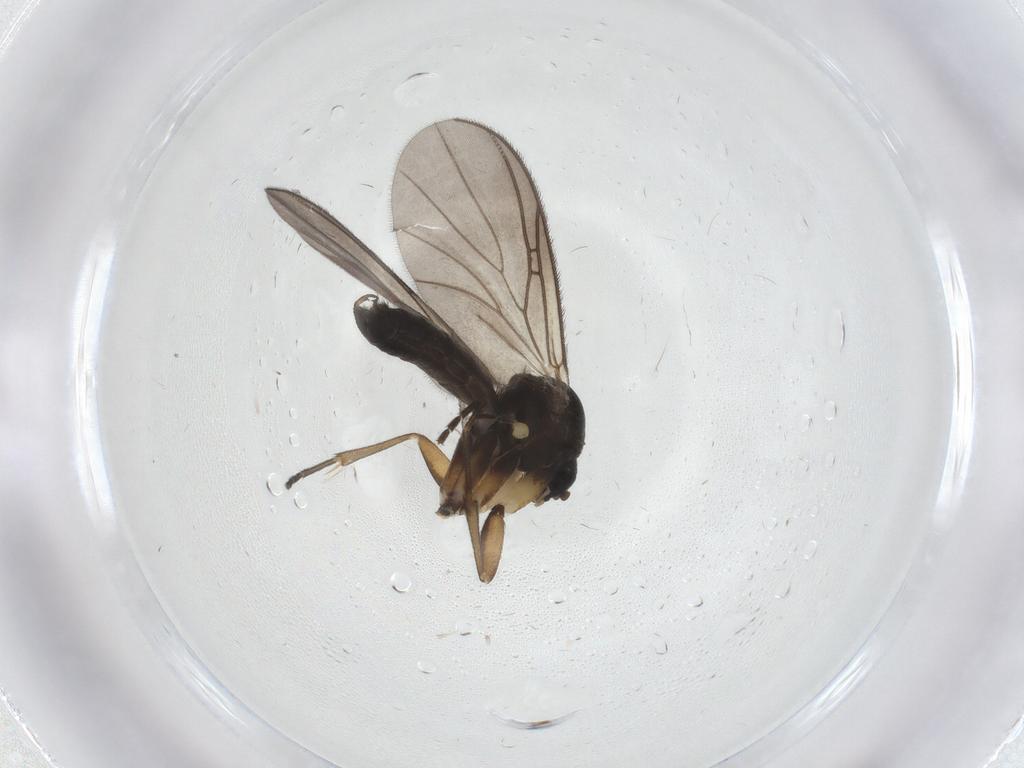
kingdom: Animalia
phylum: Arthropoda
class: Insecta
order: Diptera
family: Mycetophilidae
